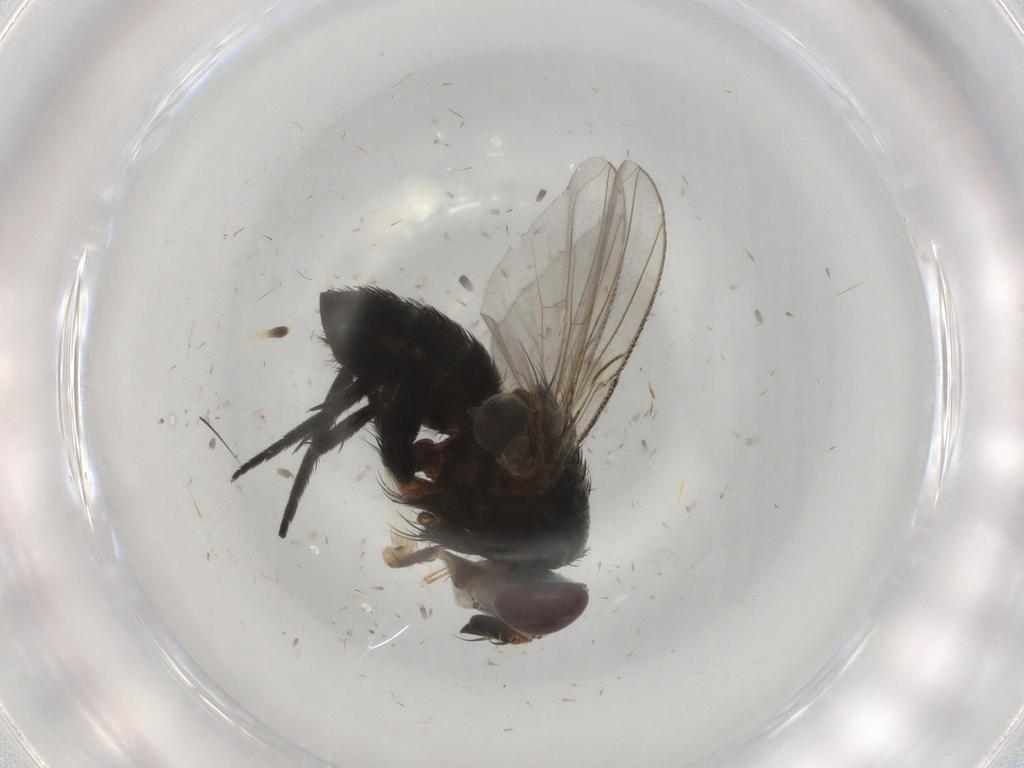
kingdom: Animalia
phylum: Arthropoda
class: Insecta
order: Diptera
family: Tachinidae
